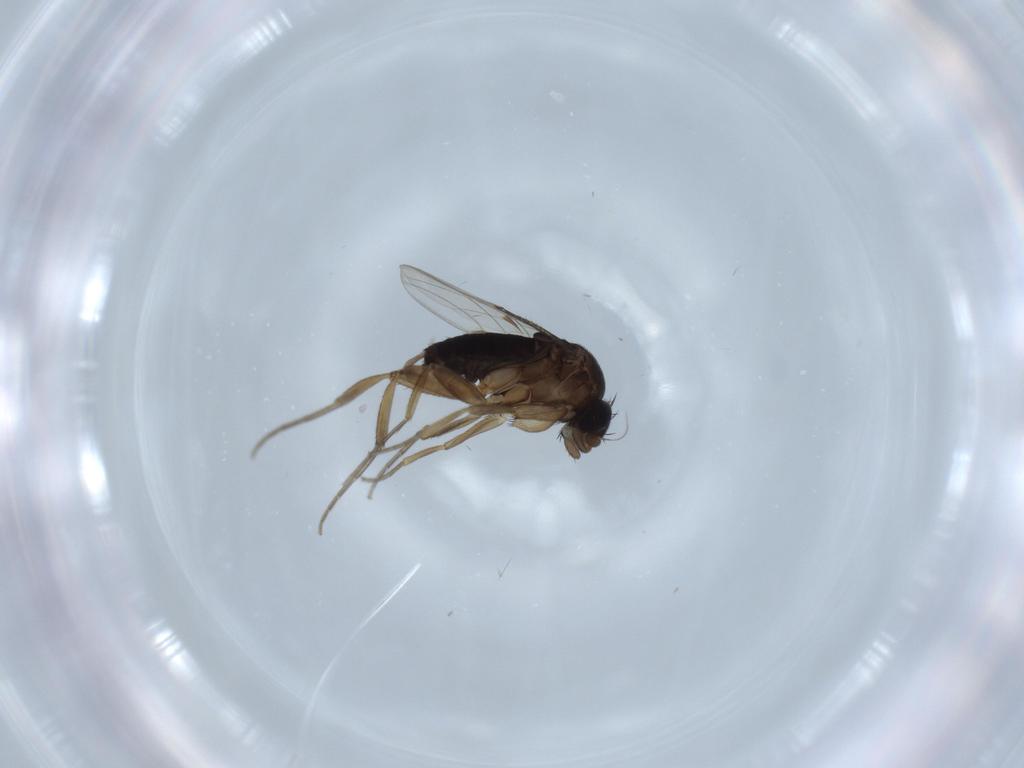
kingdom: Animalia
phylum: Arthropoda
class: Insecta
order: Diptera
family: Phoridae
